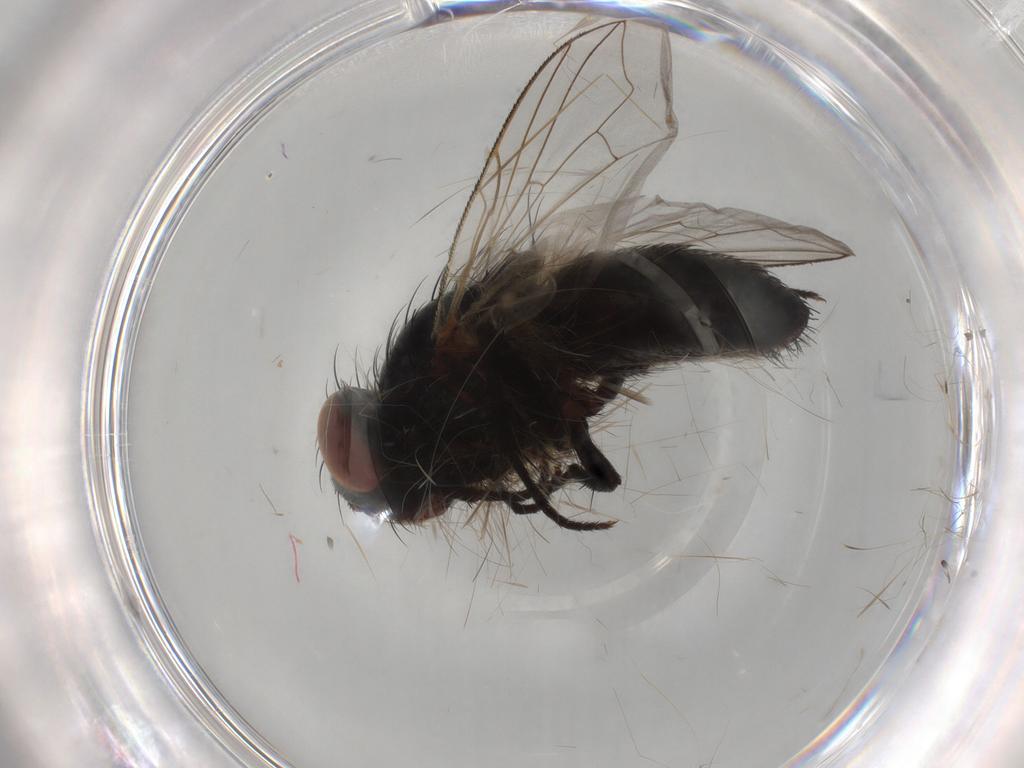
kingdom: Animalia
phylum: Arthropoda
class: Insecta
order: Diptera
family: Sarcophagidae
